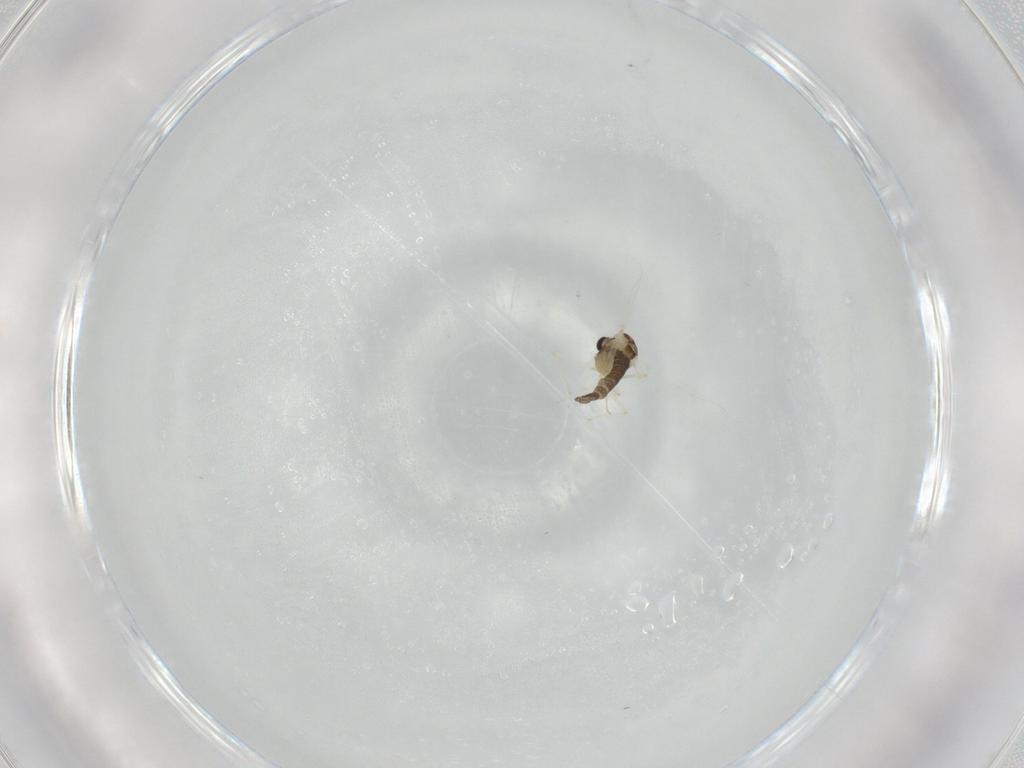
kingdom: Animalia
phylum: Arthropoda
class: Insecta
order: Diptera
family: Chironomidae
